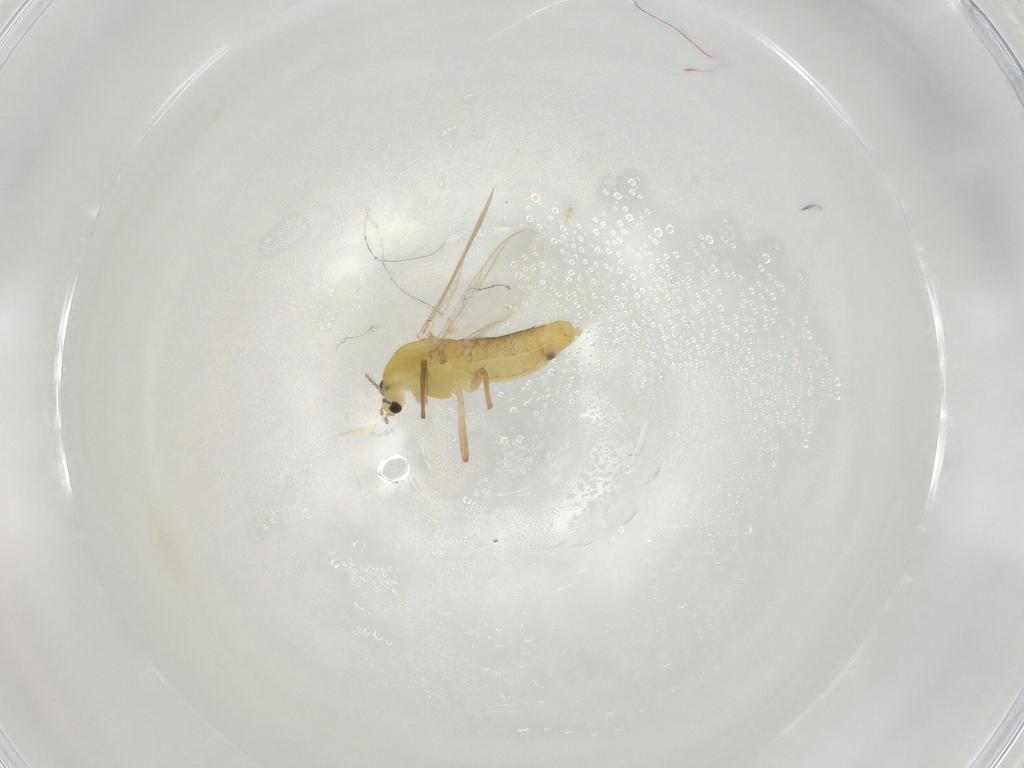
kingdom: Animalia
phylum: Arthropoda
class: Insecta
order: Diptera
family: Chironomidae
